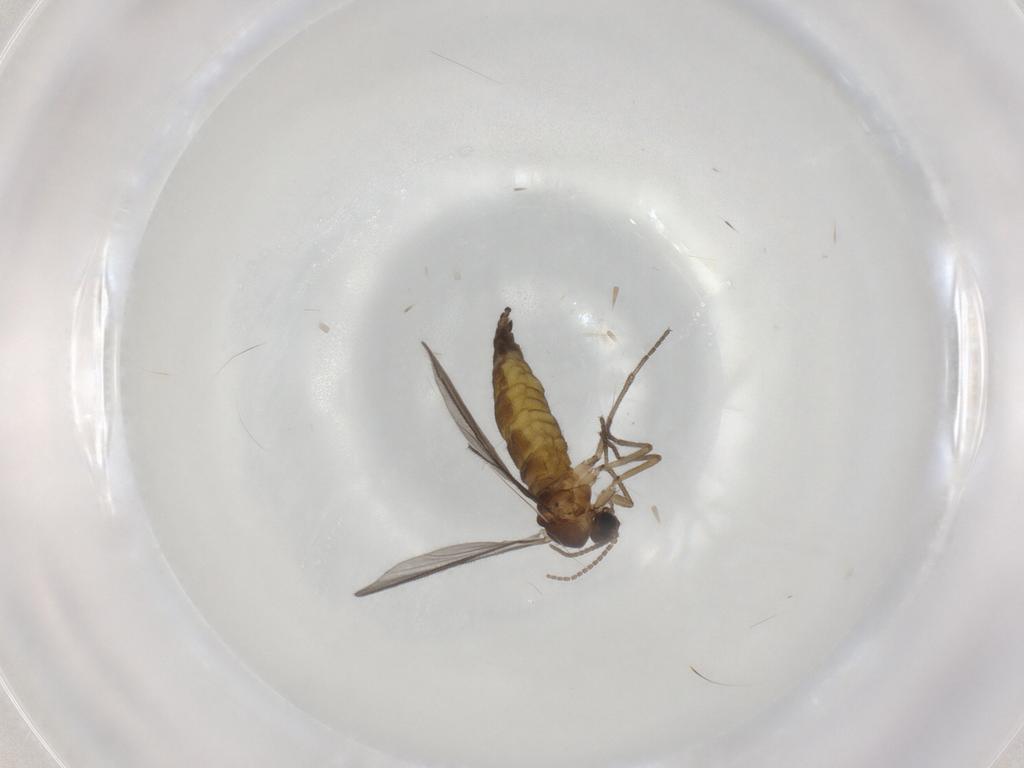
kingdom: Animalia
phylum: Arthropoda
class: Insecta
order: Diptera
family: Sciaridae
